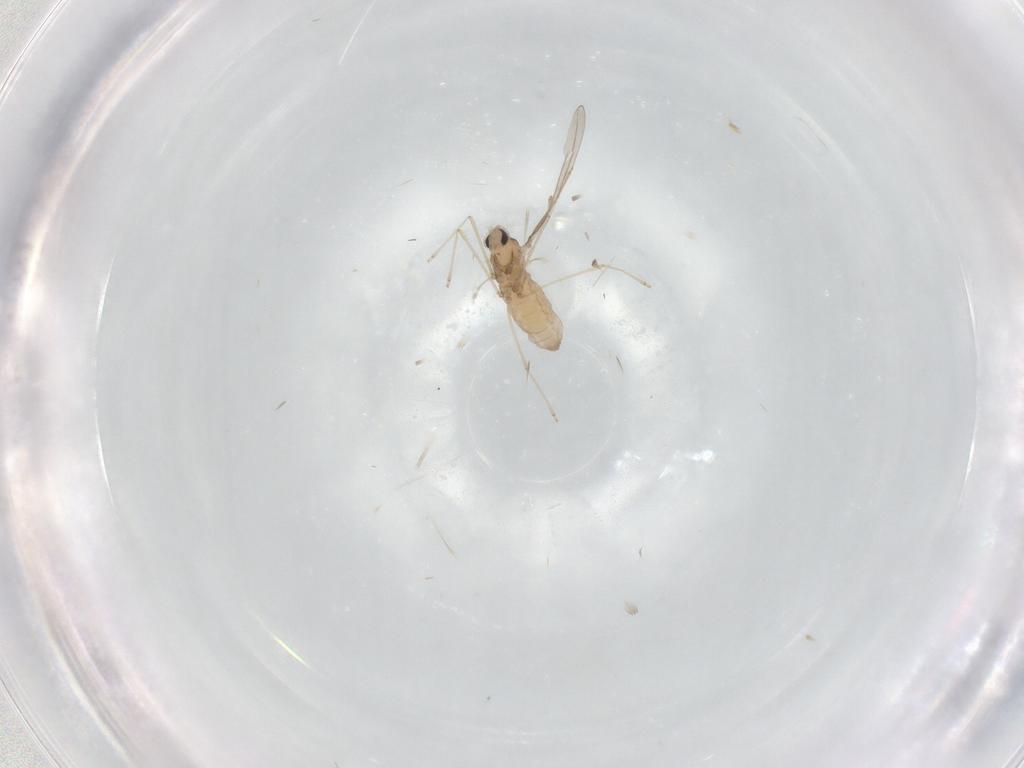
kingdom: Animalia
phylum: Arthropoda
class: Insecta
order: Diptera
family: Cecidomyiidae
